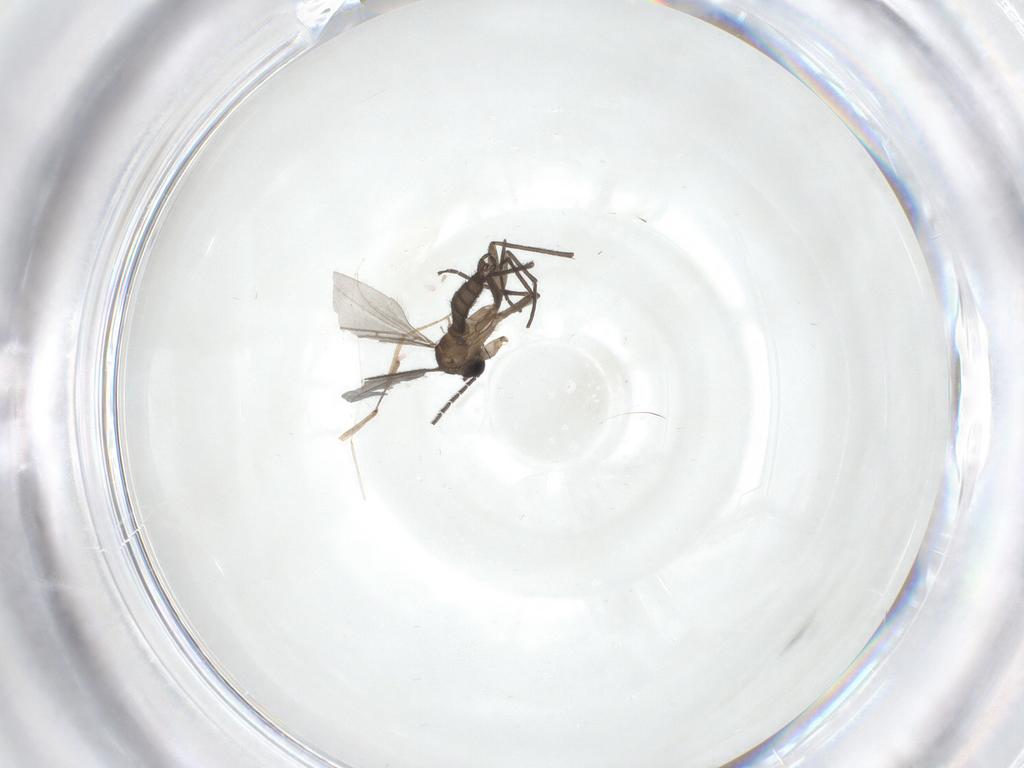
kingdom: Animalia
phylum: Arthropoda
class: Insecta
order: Diptera
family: Sciaridae
